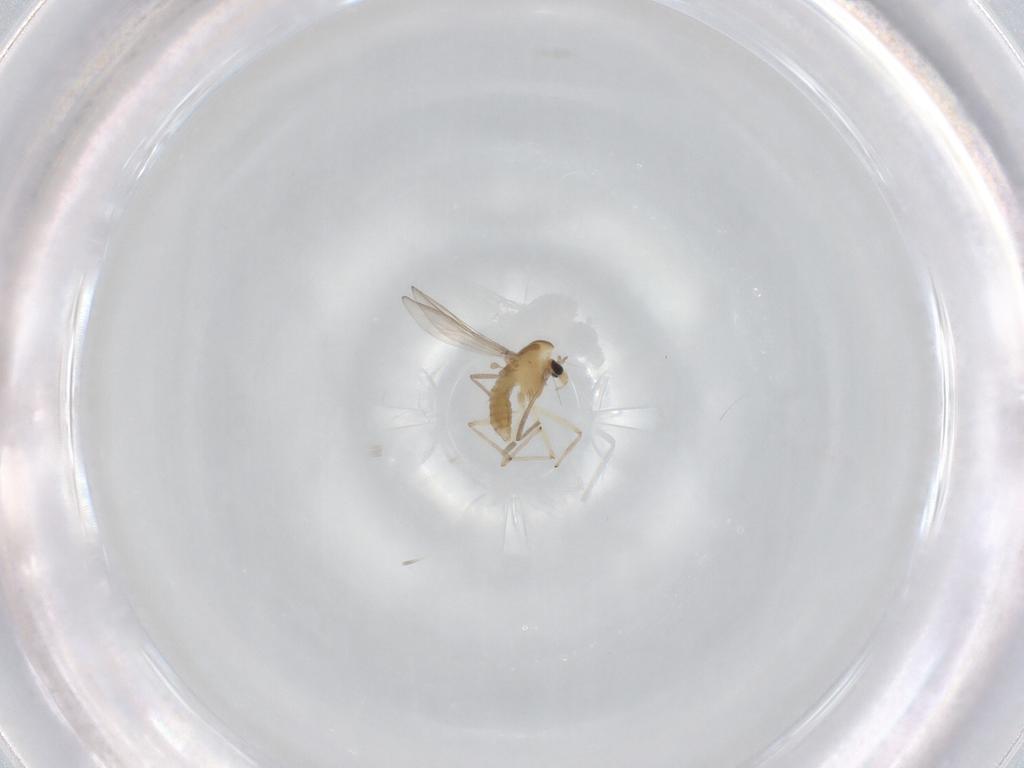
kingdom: Animalia
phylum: Arthropoda
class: Insecta
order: Diptera
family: Chironomidae
